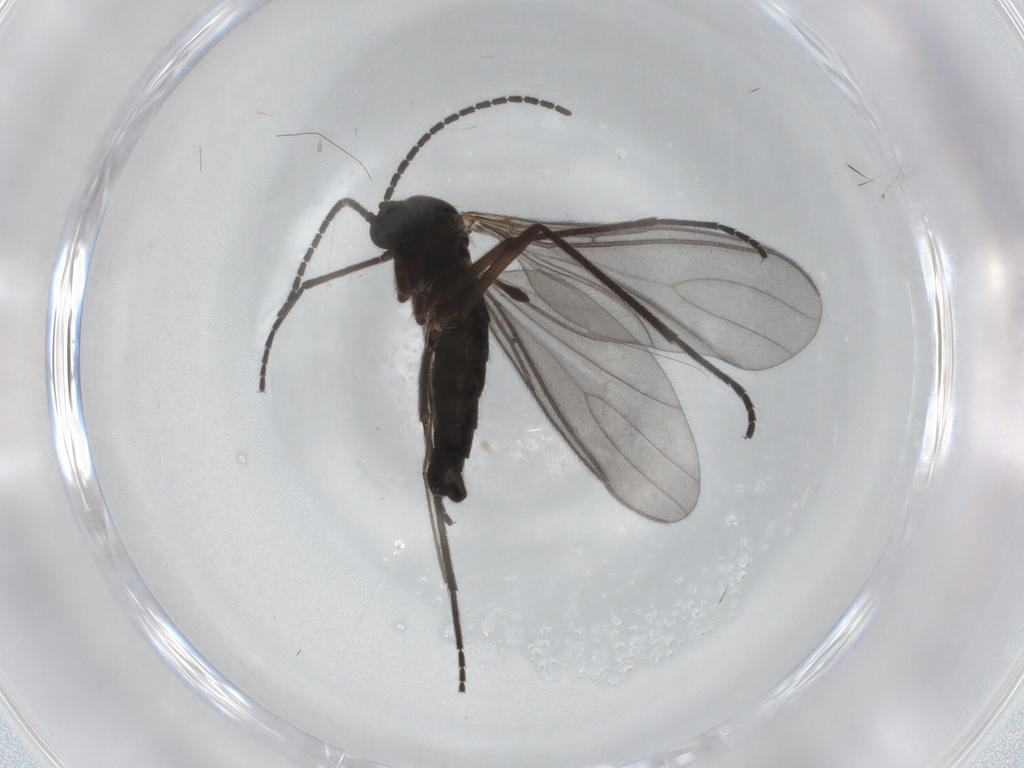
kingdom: Animalia
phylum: Arthropoda
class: Insecta
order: Diptera
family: Sciaridae
